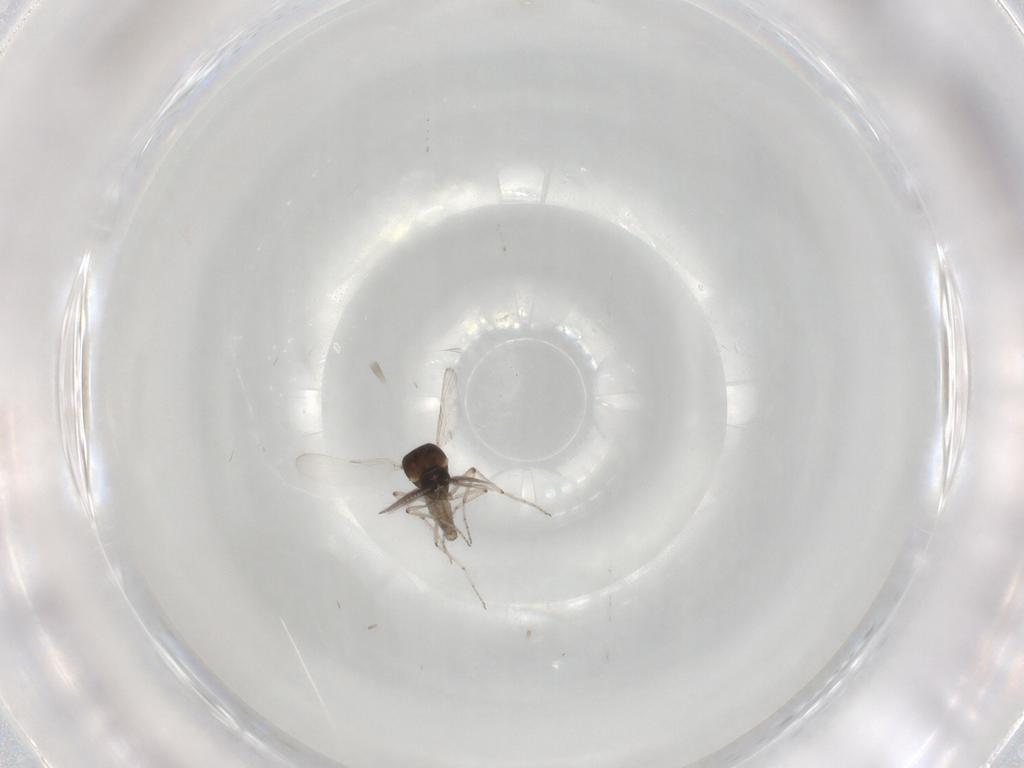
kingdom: Animalia
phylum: Arthropoda
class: Insecta
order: Diptera
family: Ceratopogonidae
